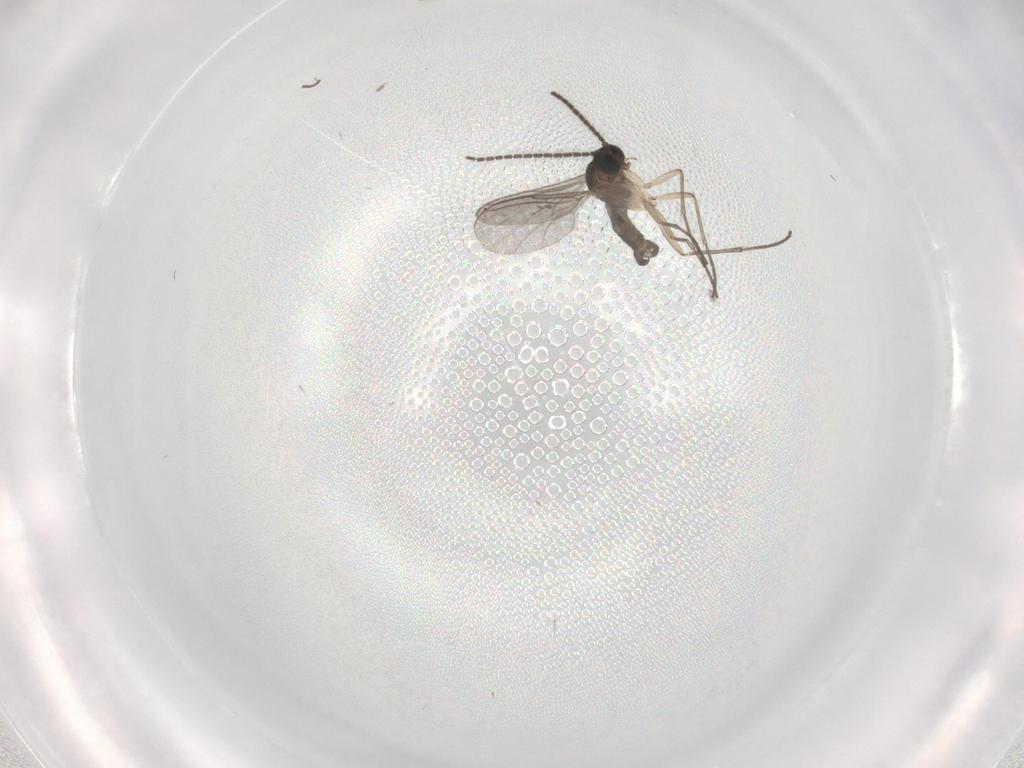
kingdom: Animalia
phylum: Arthropoda
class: Insecta
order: Diptera
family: Sciaridae
